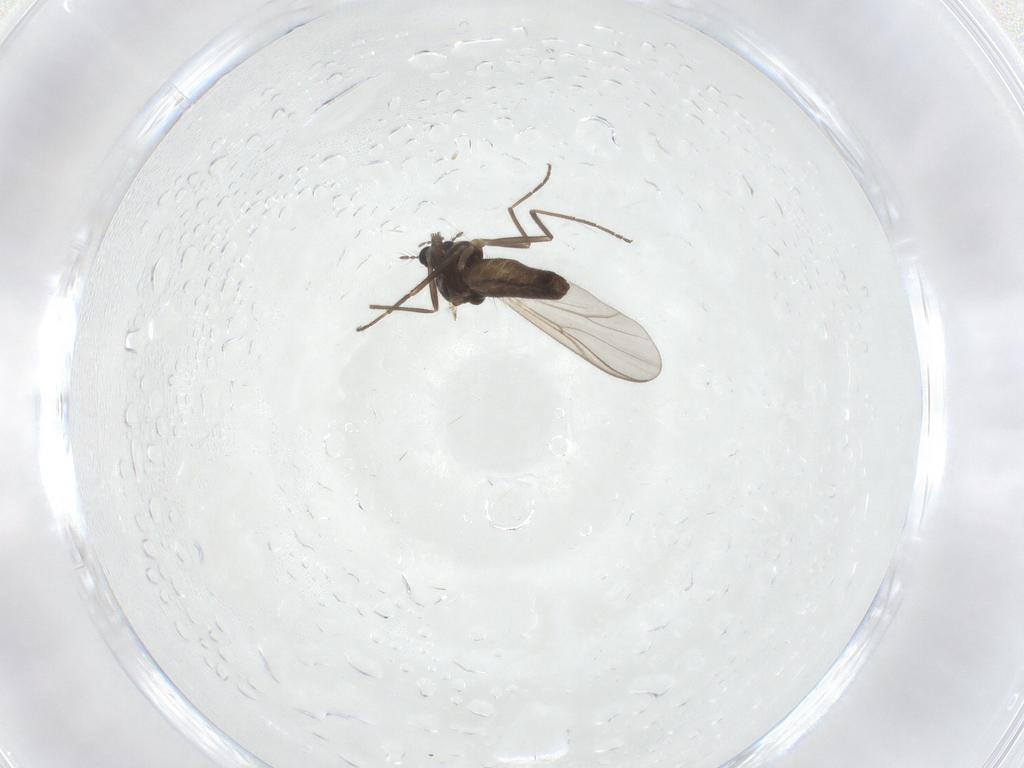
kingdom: Animalia
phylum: Arthropoda
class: Insecta
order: Diptera
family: Chironomidae
